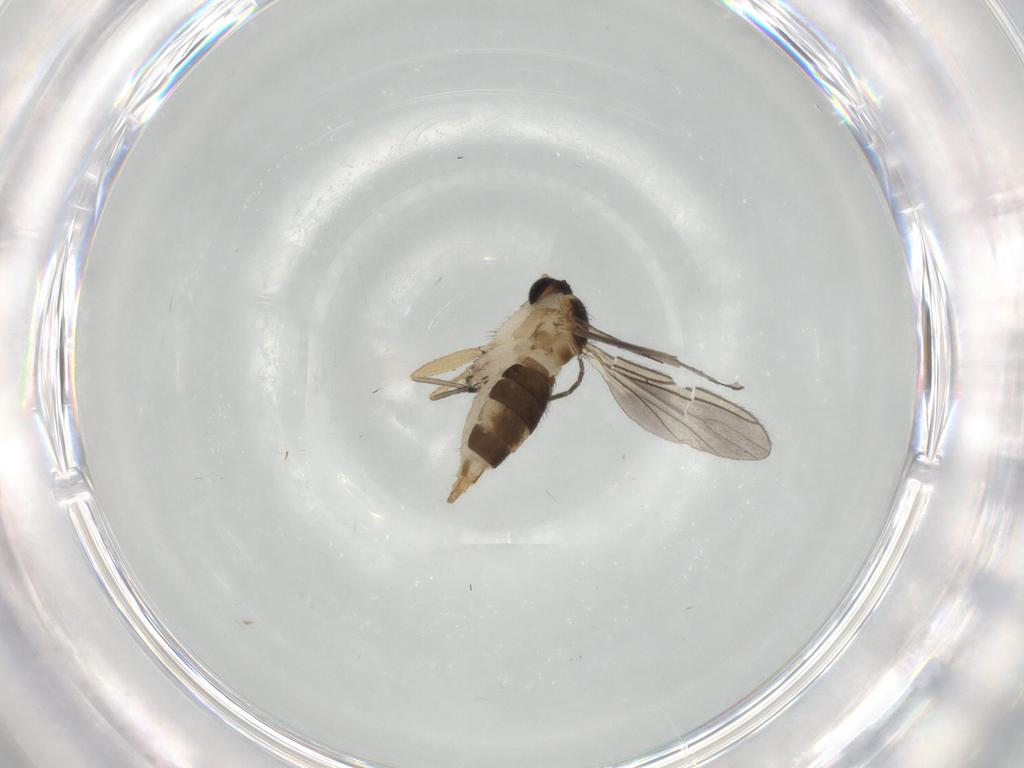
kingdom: Animalia
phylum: Arthropoda
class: Insecta
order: Diptera
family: Sciaridae
